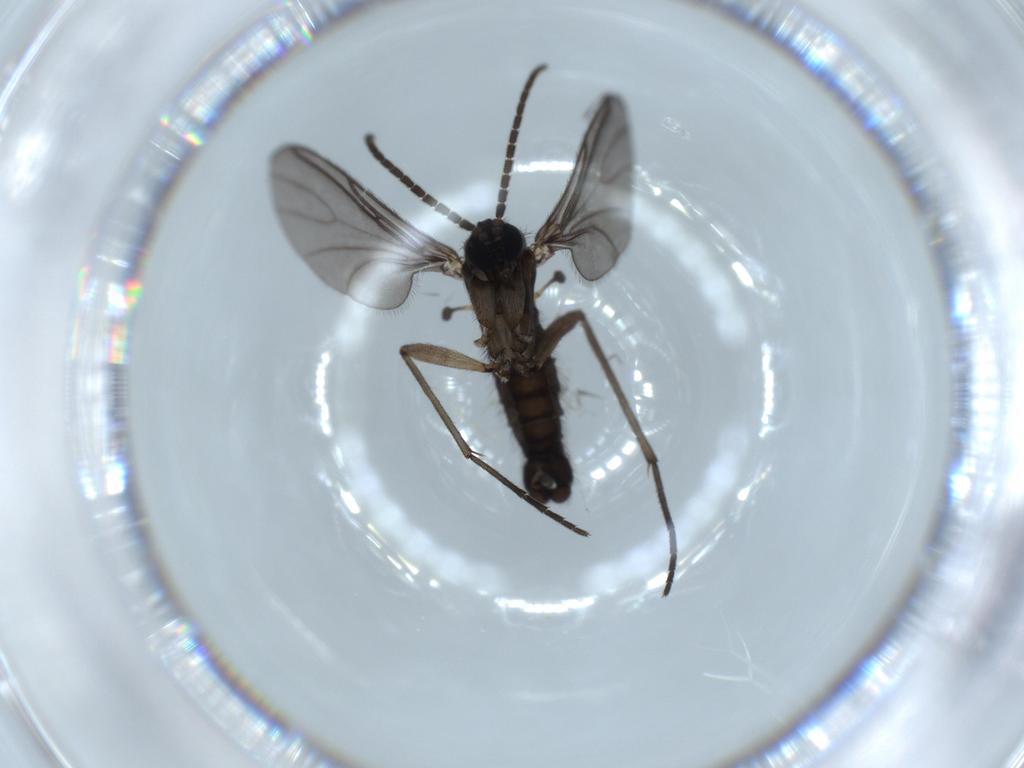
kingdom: Animalia
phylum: Arthropoda
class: Insecta
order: Diptera
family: Sciaridae
